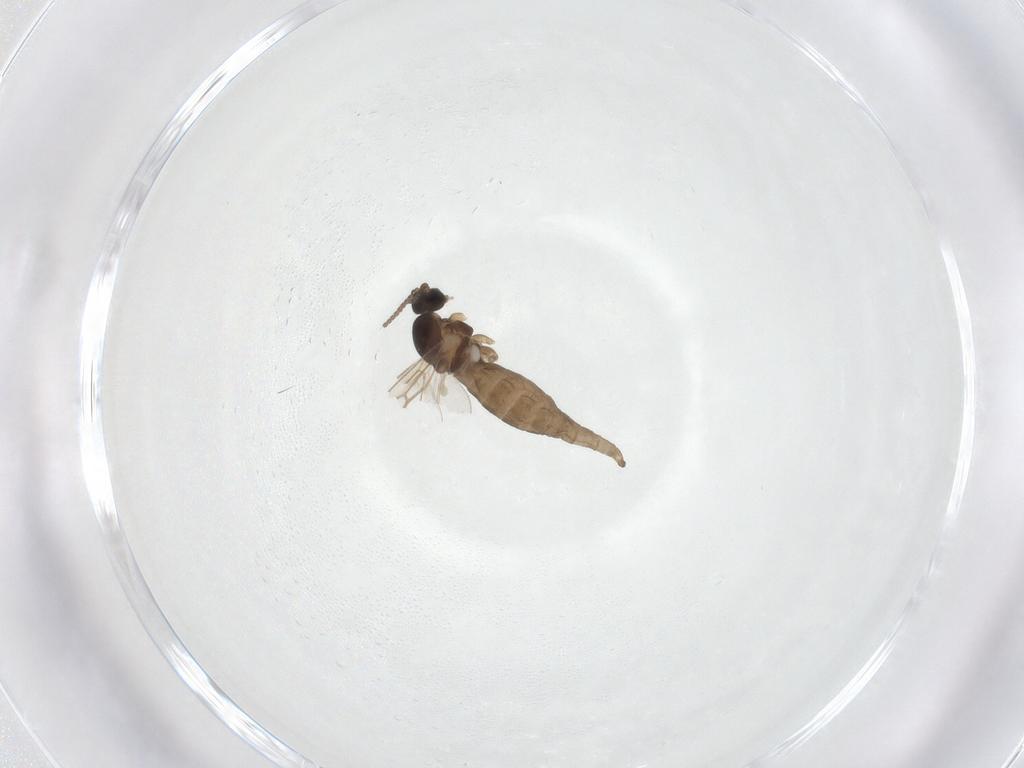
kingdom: Animalia
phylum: Arthropoda
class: Insecta
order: Diptera
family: Cecidomyiidae
